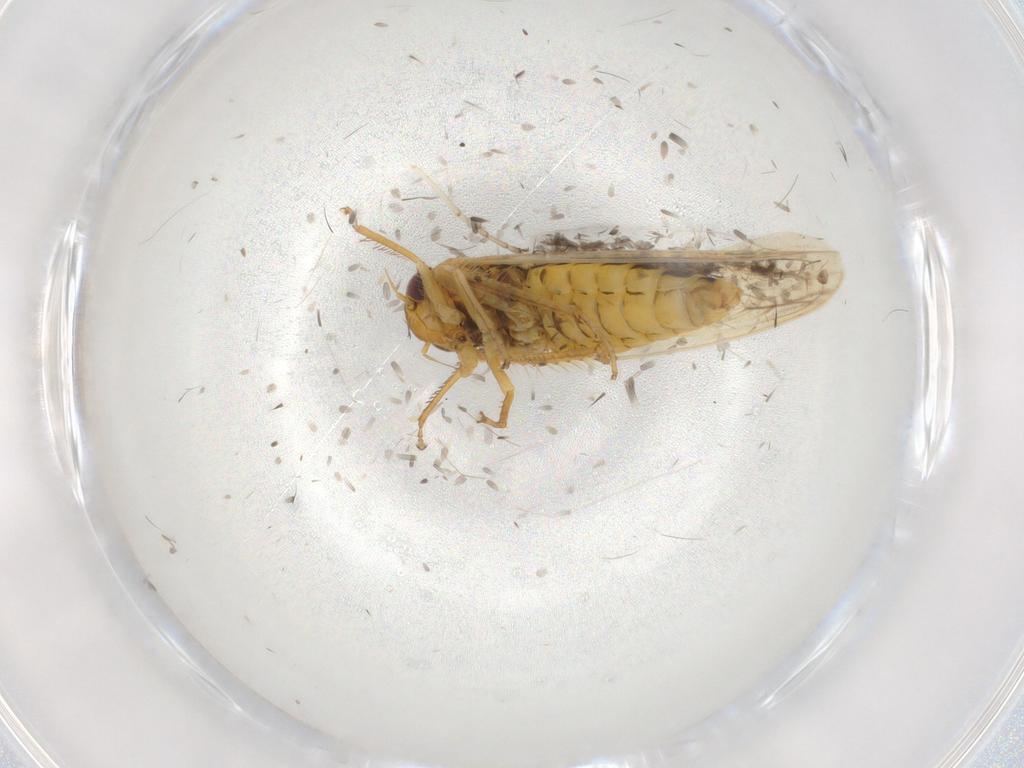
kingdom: Animalia
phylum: Arthropoda
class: Insecta
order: Hemiptera
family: Cicadellidae
